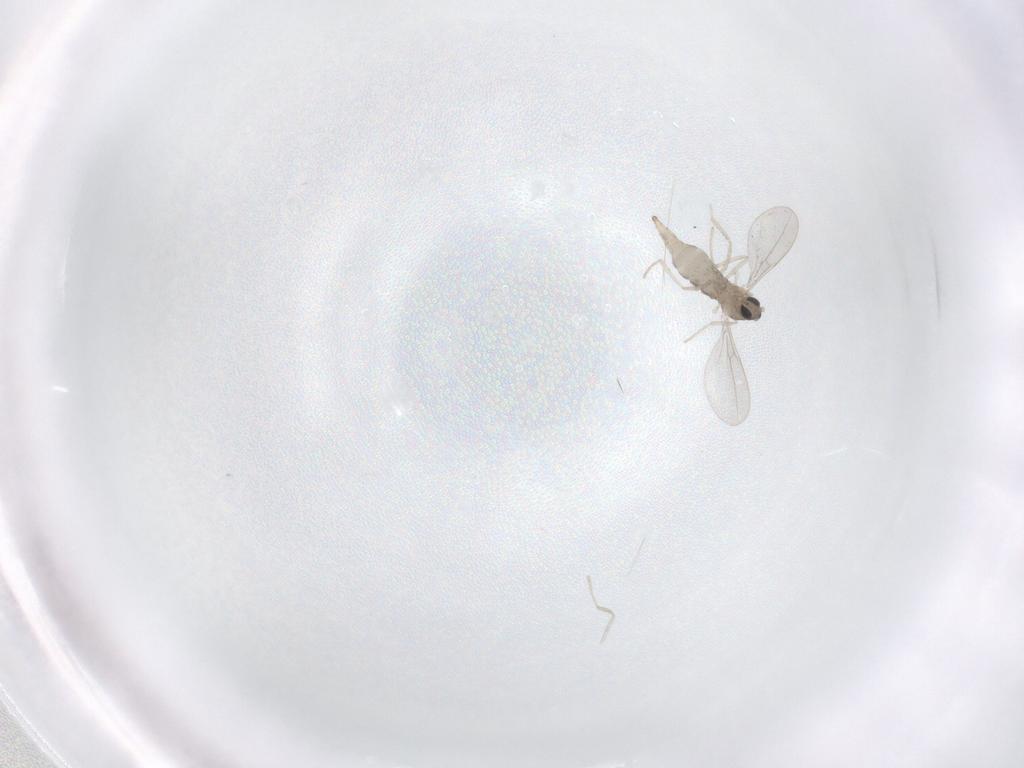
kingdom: Animalia
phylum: Arthropoda
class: Insecta
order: Diptera
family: Cecidomyiidae
